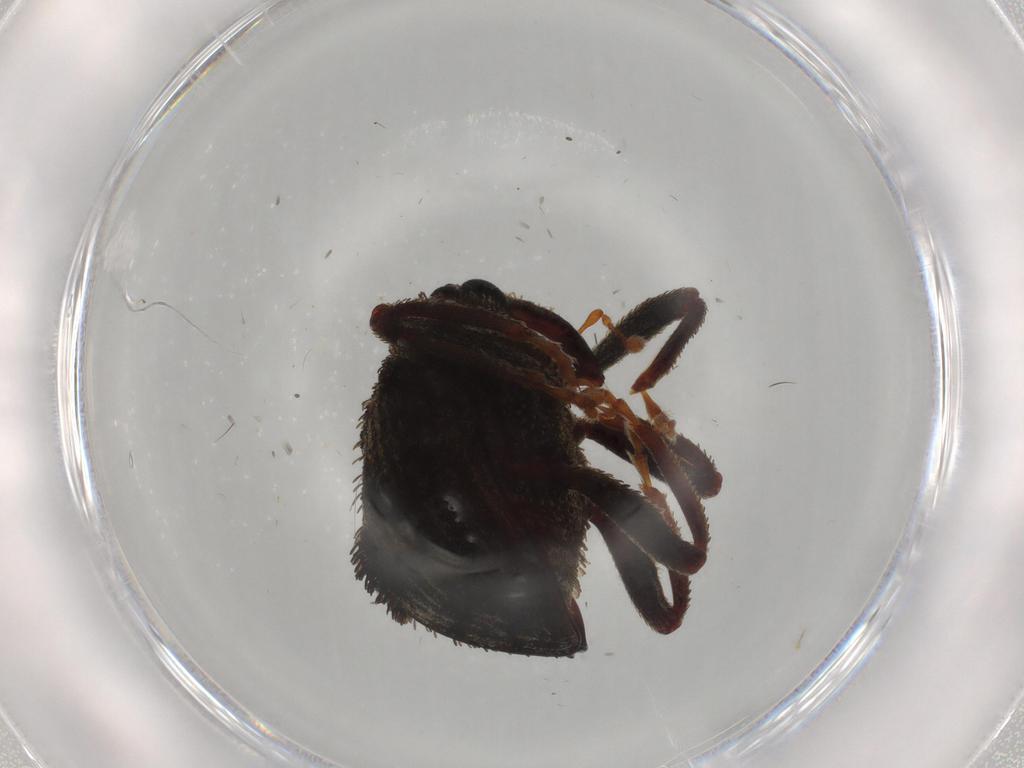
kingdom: Animalia
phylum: Arthropoda
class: Insecta
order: Coleoptera
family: Curculionidae
